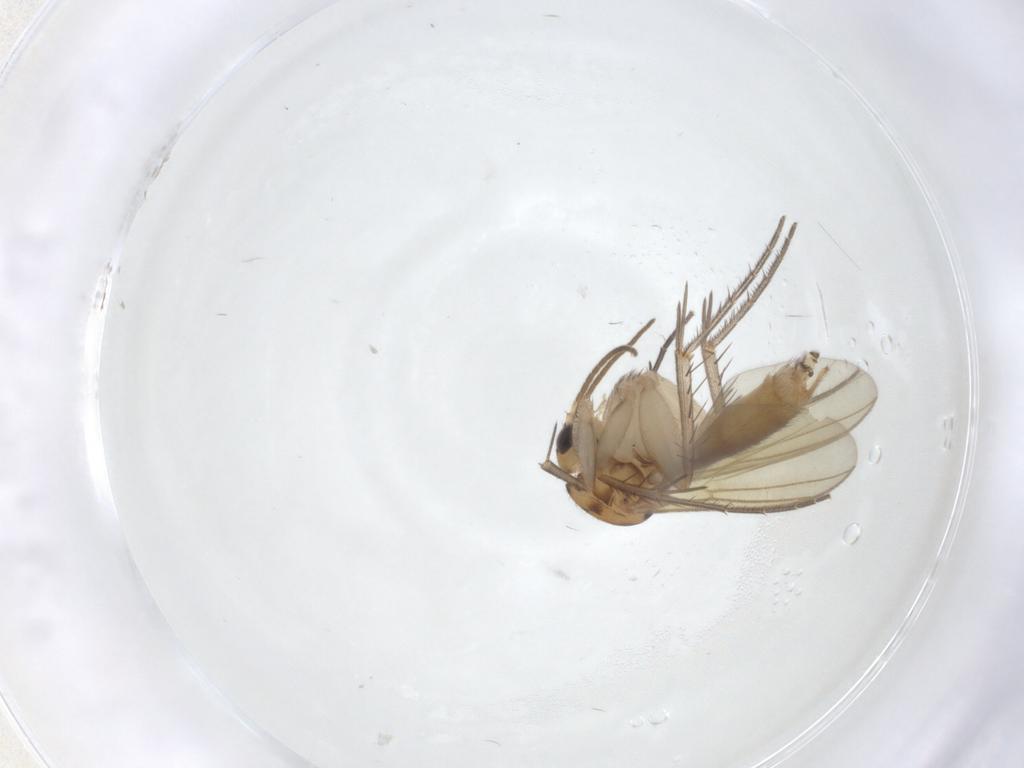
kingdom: Animalia
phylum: Arthropoda
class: Insecta
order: Diptera
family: Mycetophilidae
